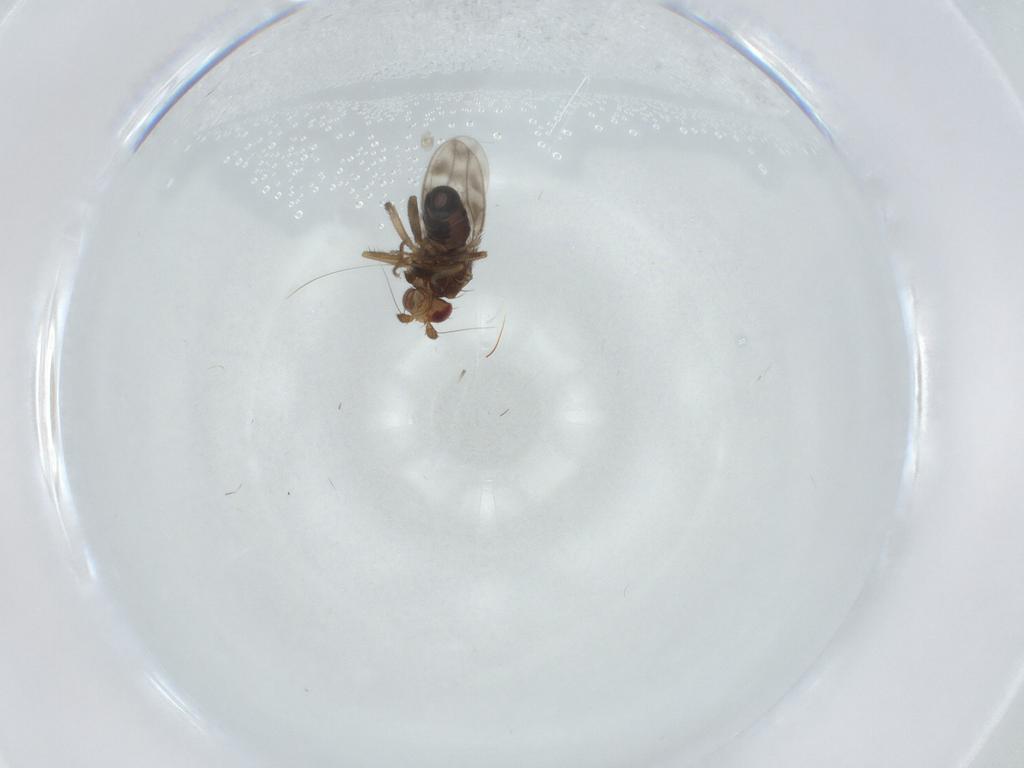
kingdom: Animalia
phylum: Arthropoda
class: Insecta
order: Diptera
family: Sphaeroceridae
